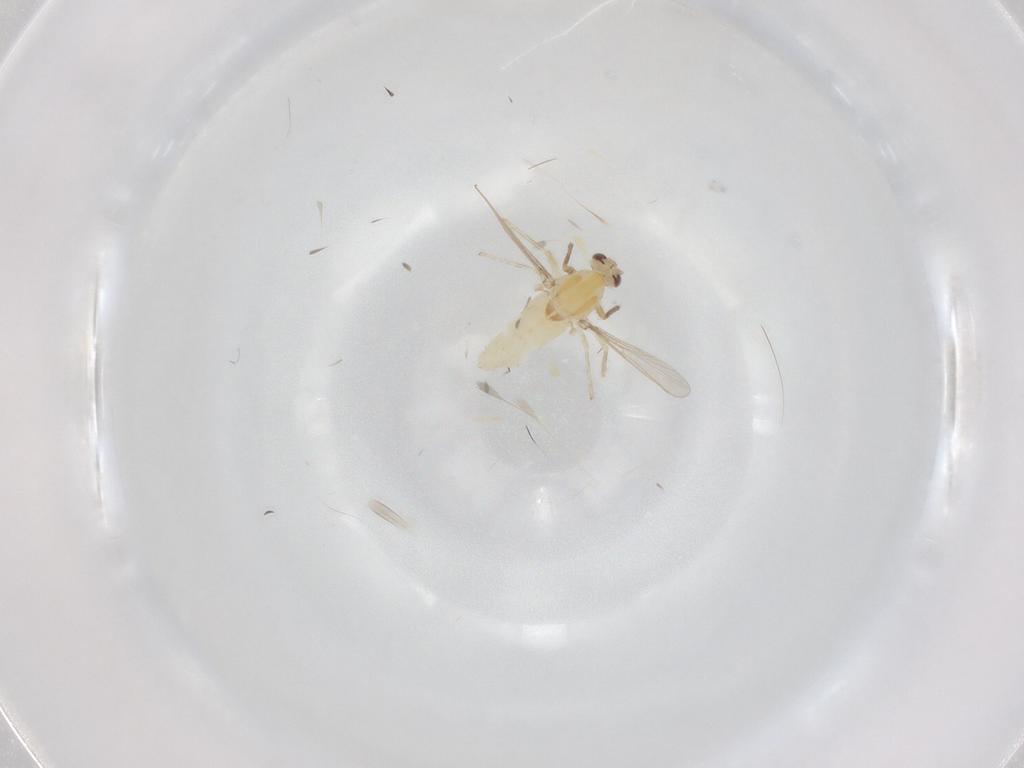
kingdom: Animalia
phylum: Arthropoda
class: Insecta
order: Diptera
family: Chironomidae
